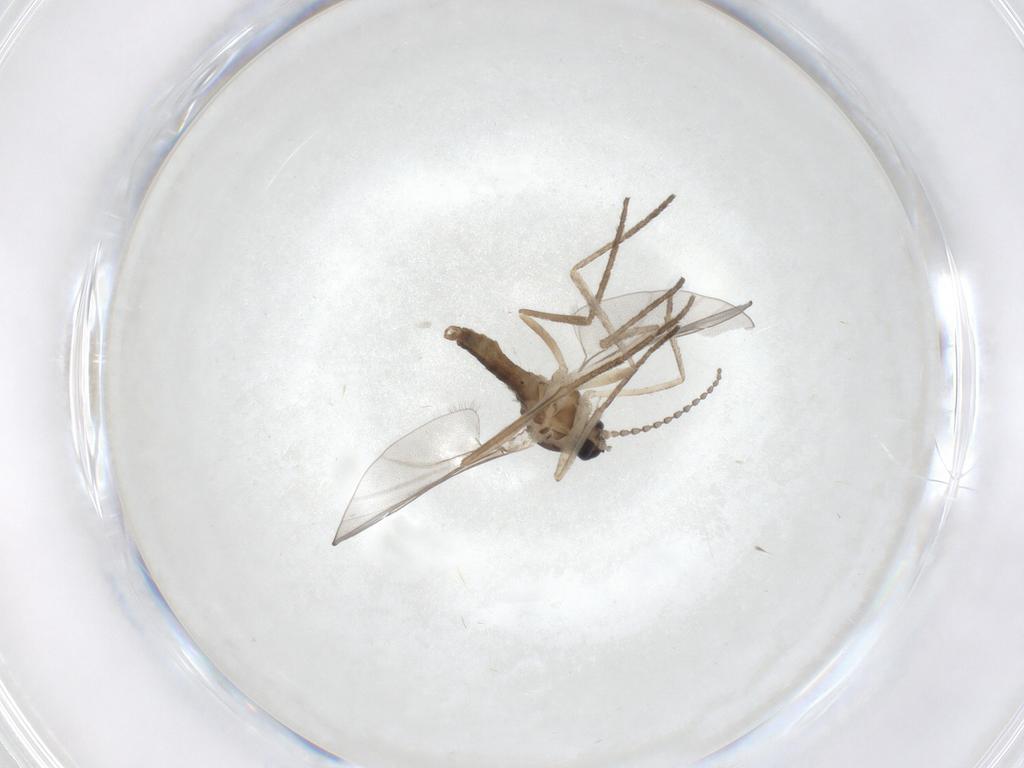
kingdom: Animalia
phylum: Arthropoda
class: Insecta
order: Diptera
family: Cecidomyiidae
